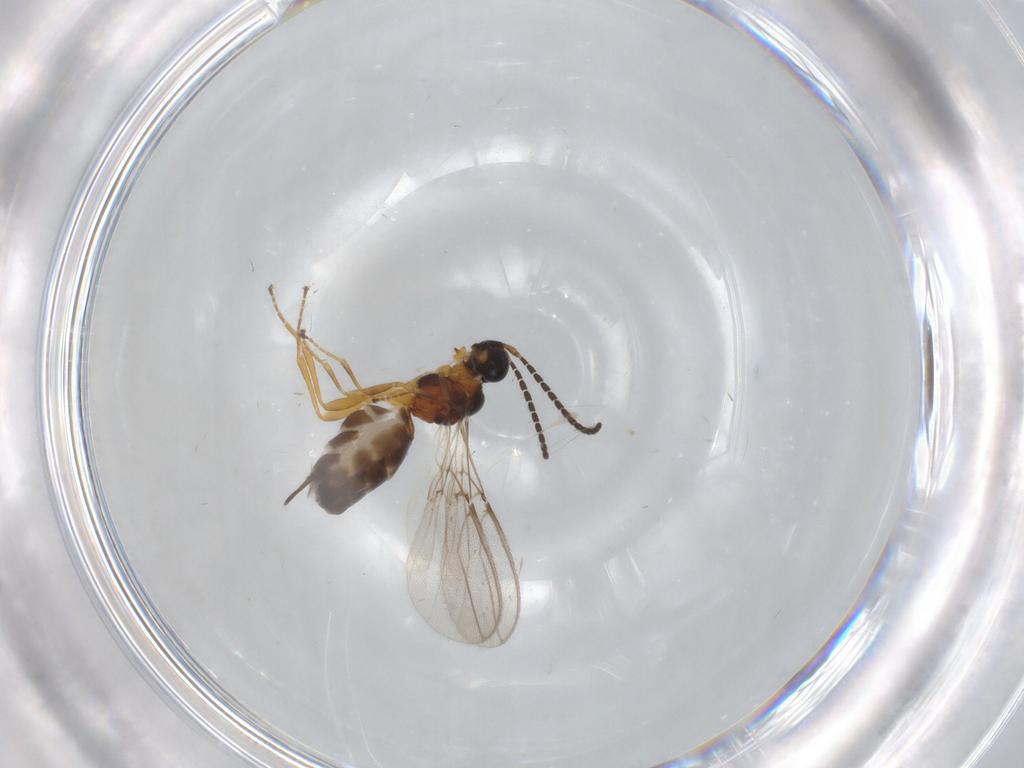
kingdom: Animalia
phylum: Arthropoda
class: Insecta
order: Hymenoptera
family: Braconidae
